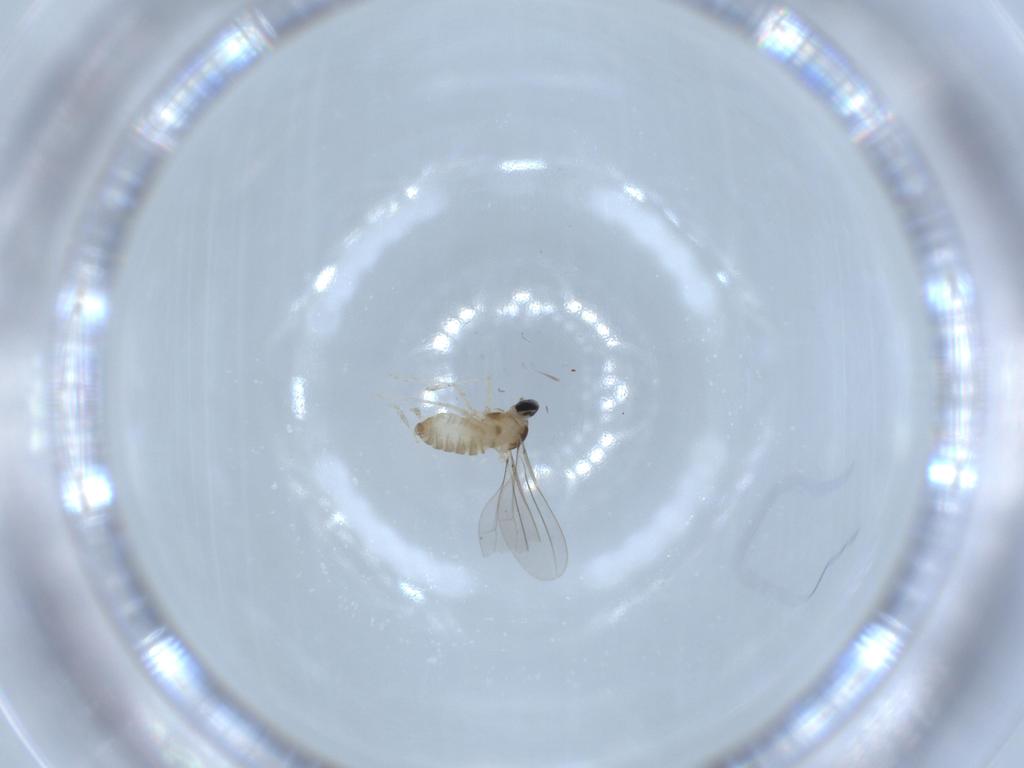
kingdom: Animalia
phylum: Arthropoda
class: Insecta
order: Diptera
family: Cecidomyiidae
